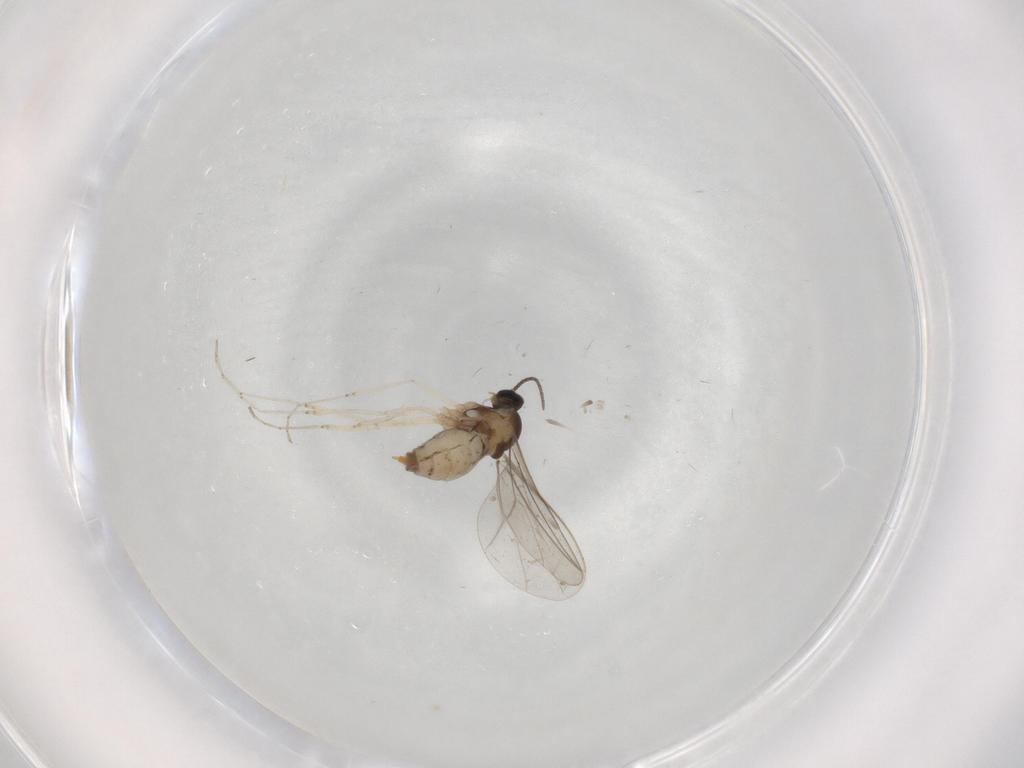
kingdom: Animalia
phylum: Arthropoda
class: Insecta
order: Diptera
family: Cecidomyiidae
